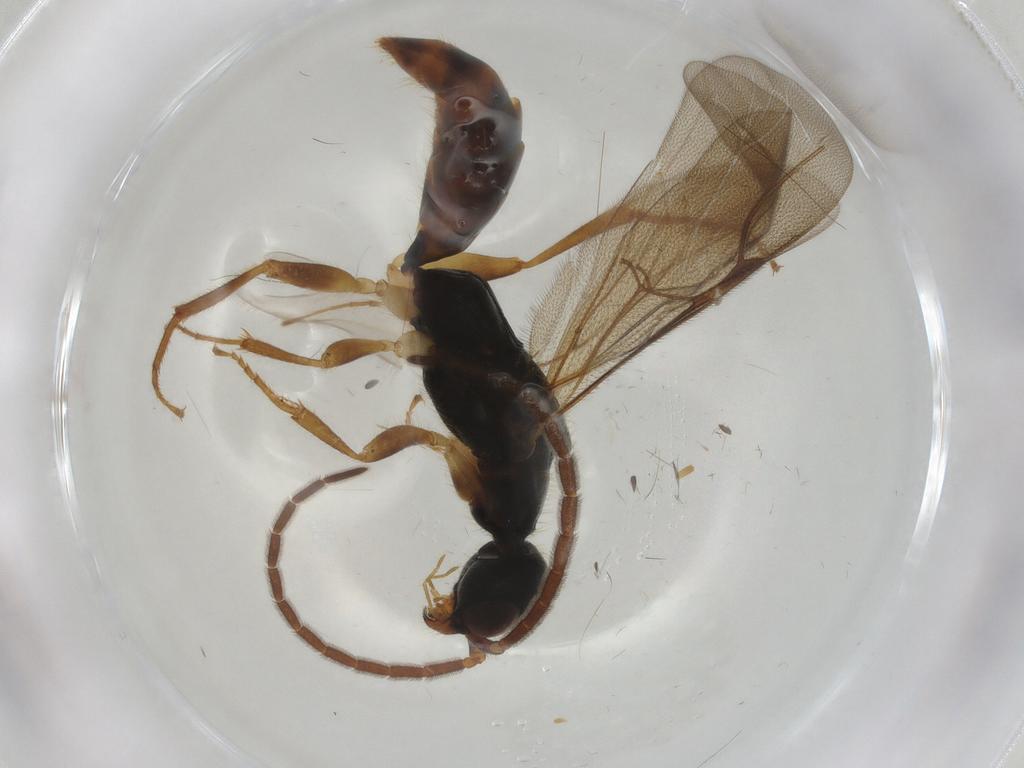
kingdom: Animalia
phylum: Arthropoda
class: Insecta
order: Hymenoptera
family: Scelionidae
